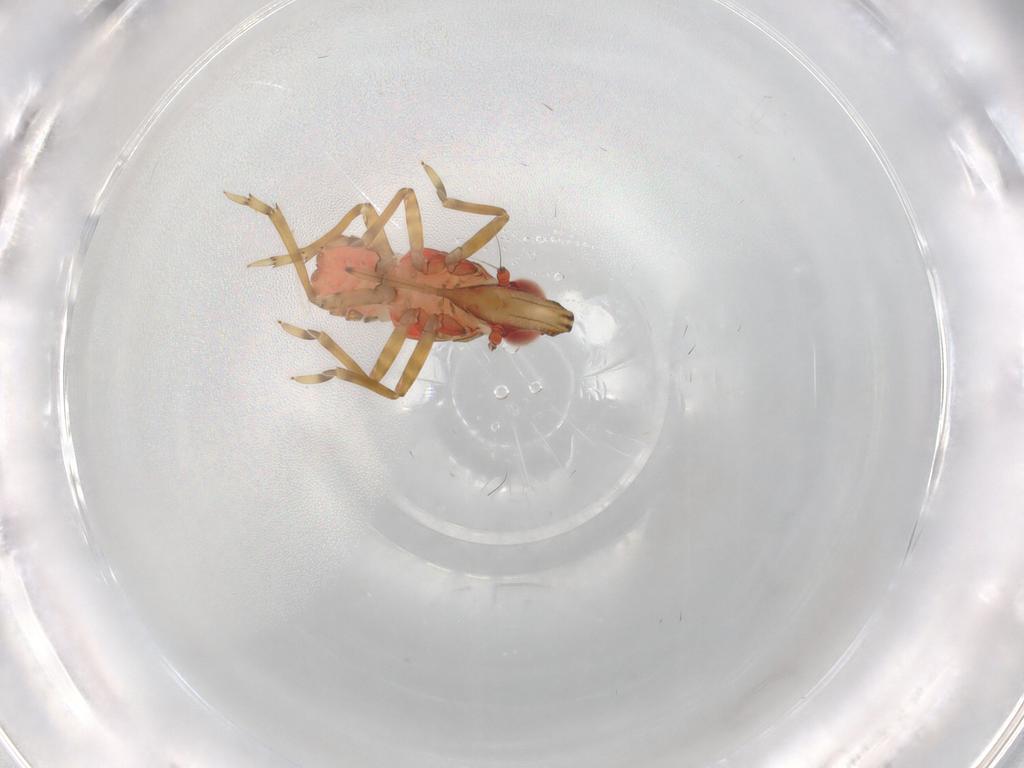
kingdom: Animalia
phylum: Arthropoda
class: Insecta
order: Hemiptera
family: Fulgoroidea_incertae_sedis
